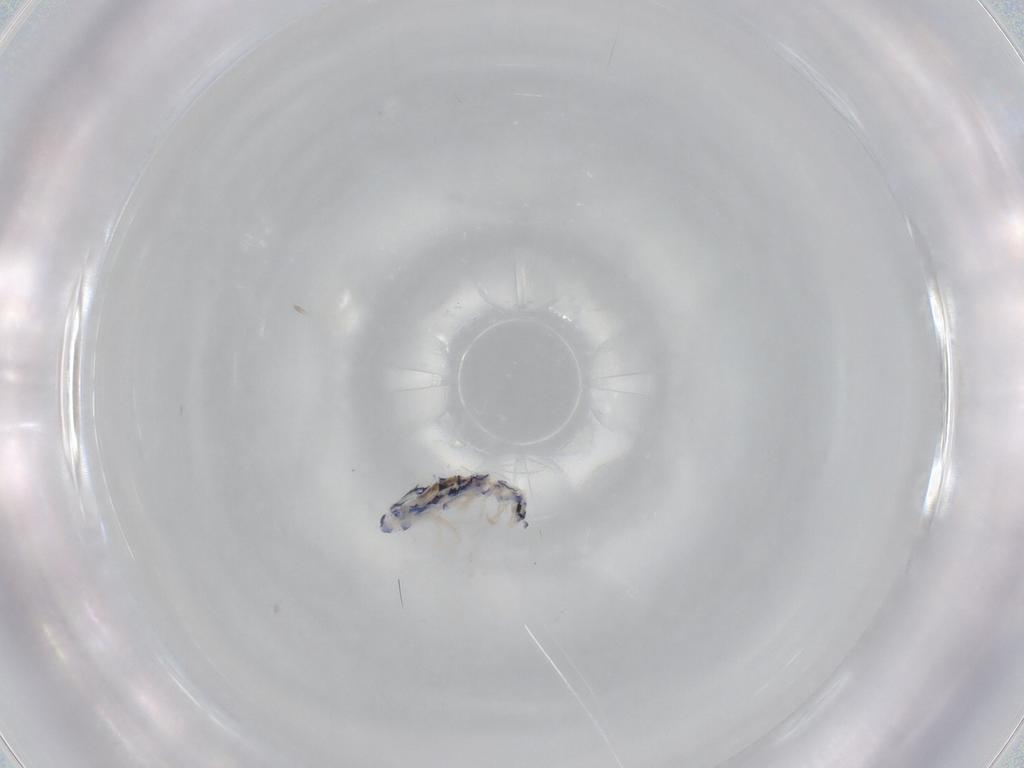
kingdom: Animalia
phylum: Arthropoda
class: Collembola
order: Entomobryomorpha
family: Entomobryidae
